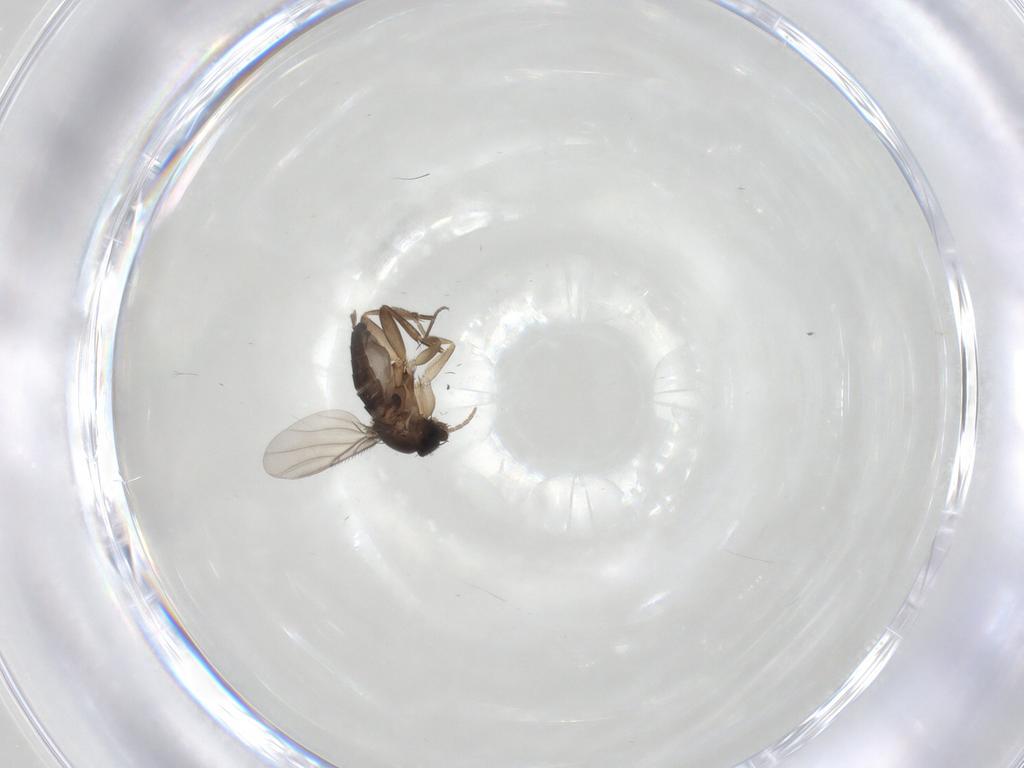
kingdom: Animalia
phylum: Arthropoda
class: Insecta
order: Diptera
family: Phoridae
